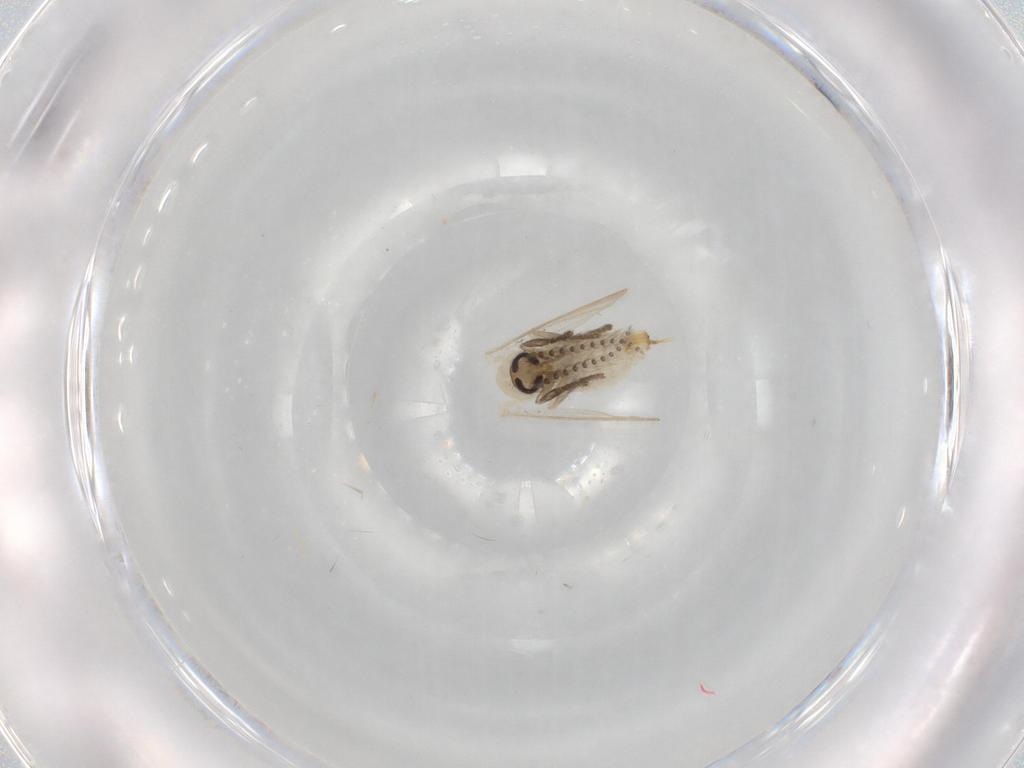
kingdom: Animalia
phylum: Arthropoda
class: Insecta
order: Diptera
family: Psychodidae
